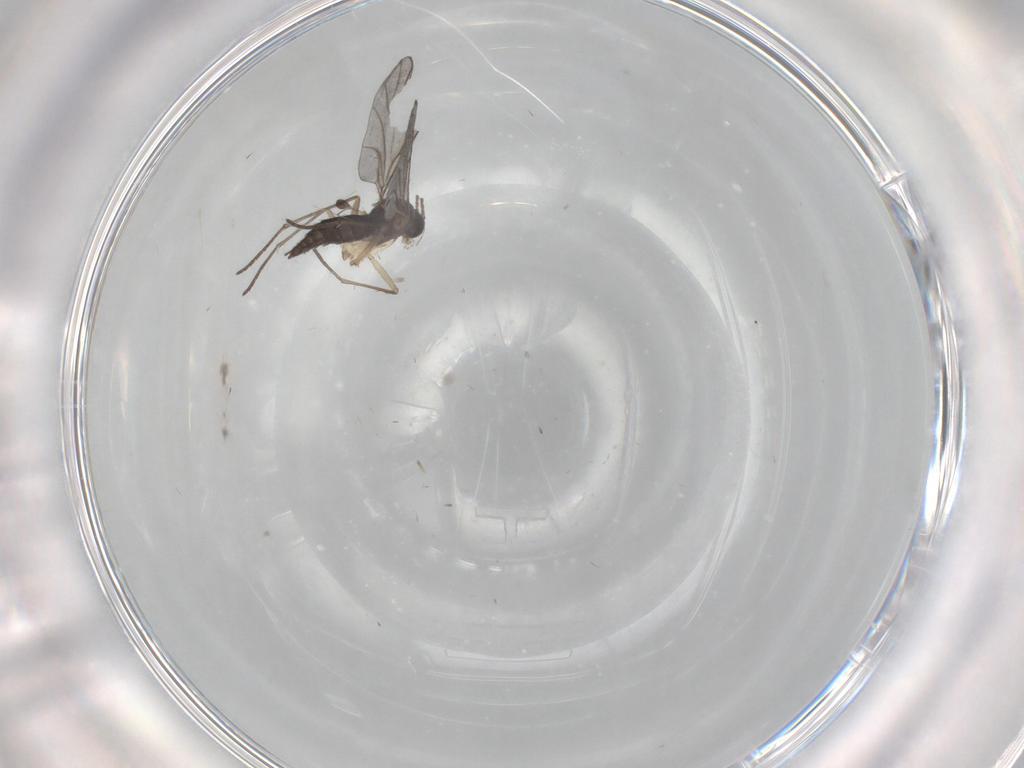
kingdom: Animalia
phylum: Arthropoda
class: Insecta
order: Diptera
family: Sciaridae
